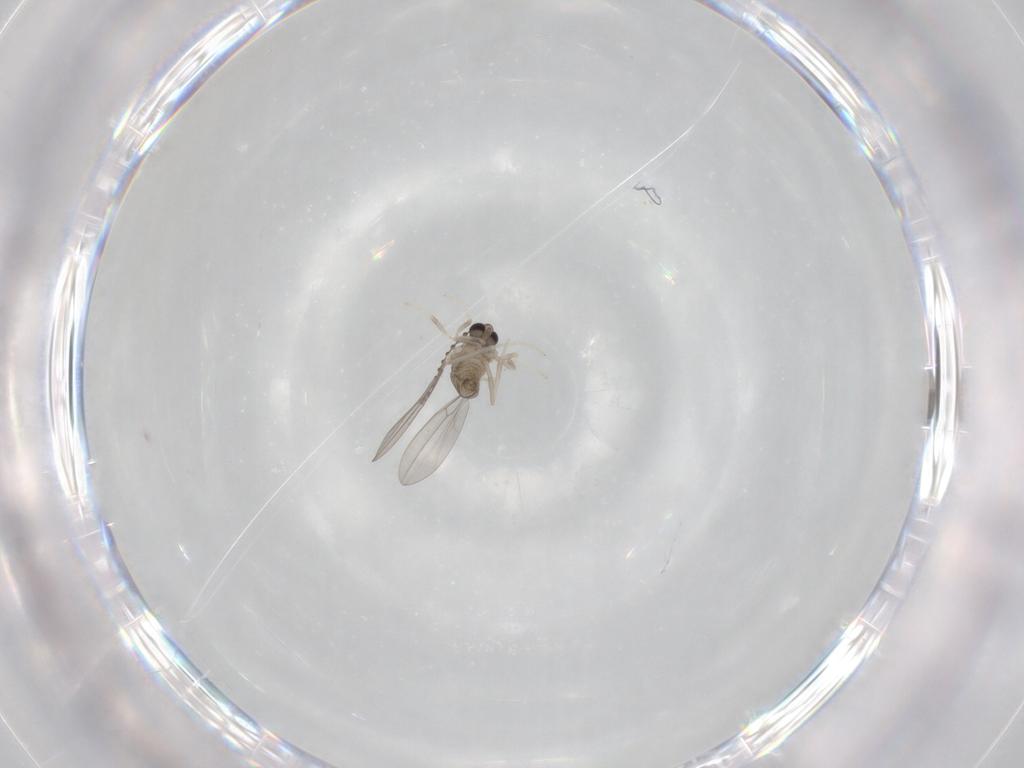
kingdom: Animalia
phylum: Arthropoda
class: Insecta
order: Diptera
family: Cecidomyiidae
